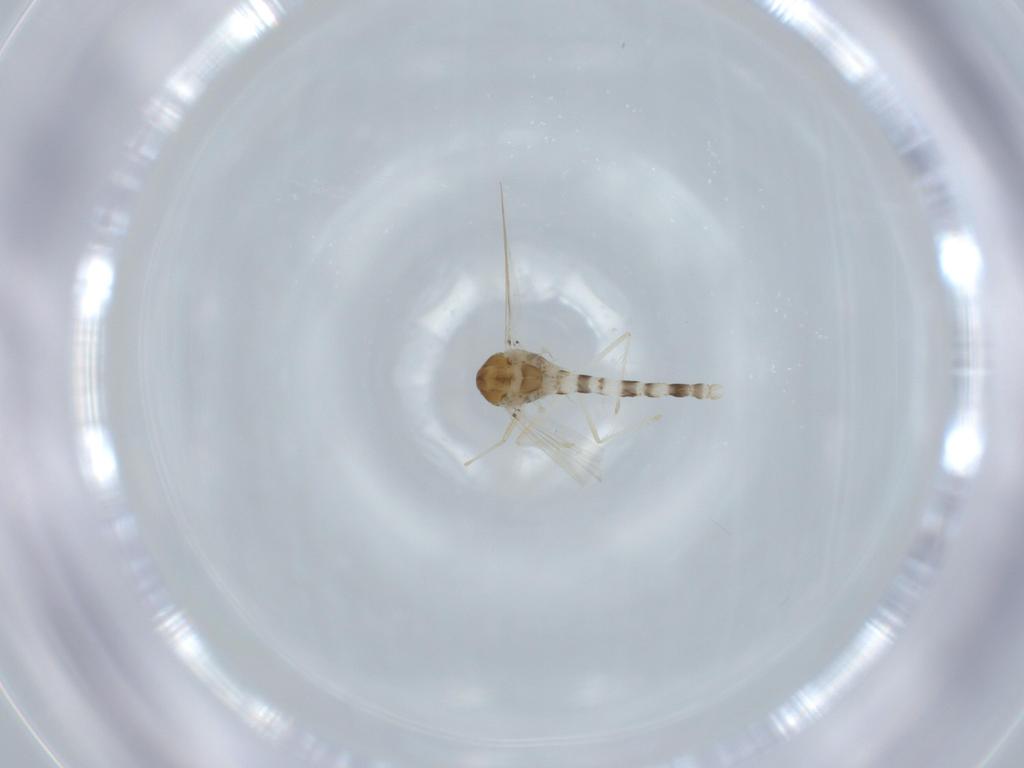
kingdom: Animalia
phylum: Arthropoda
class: Insecta
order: Diptera
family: Chironomidae
